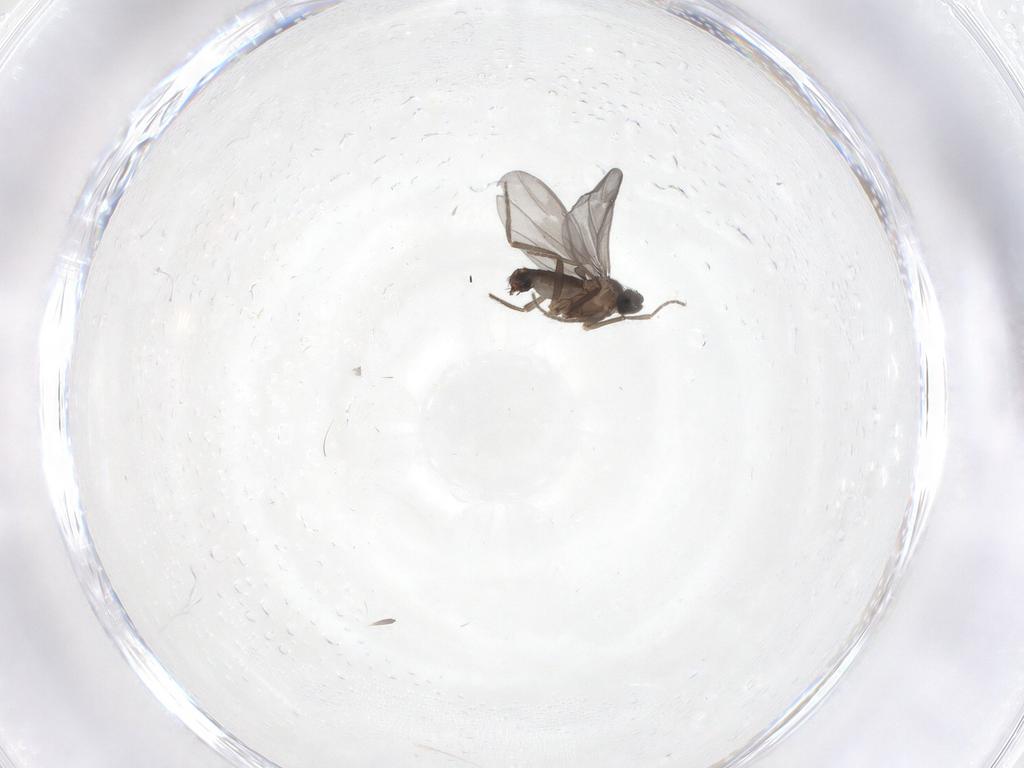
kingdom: Animalia
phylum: Arthropoda
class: Insecta
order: Diptera
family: Phoridae
